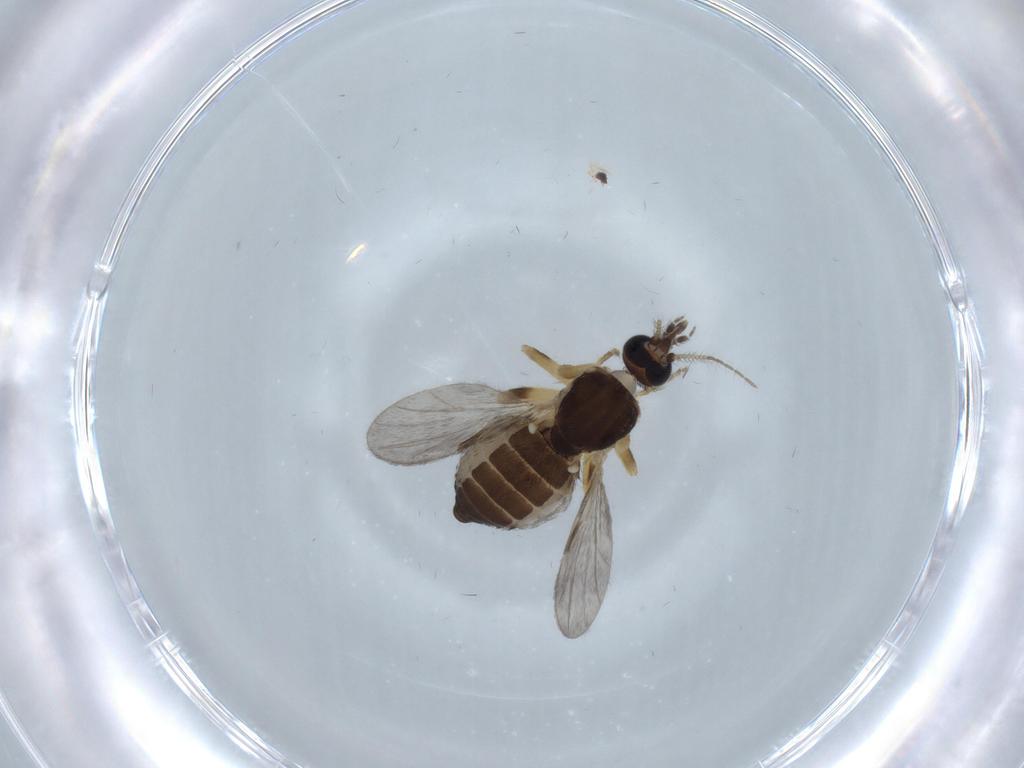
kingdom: Animalia
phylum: Arthropoda
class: Insecta
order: Diptera
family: Ceratopogonidae
